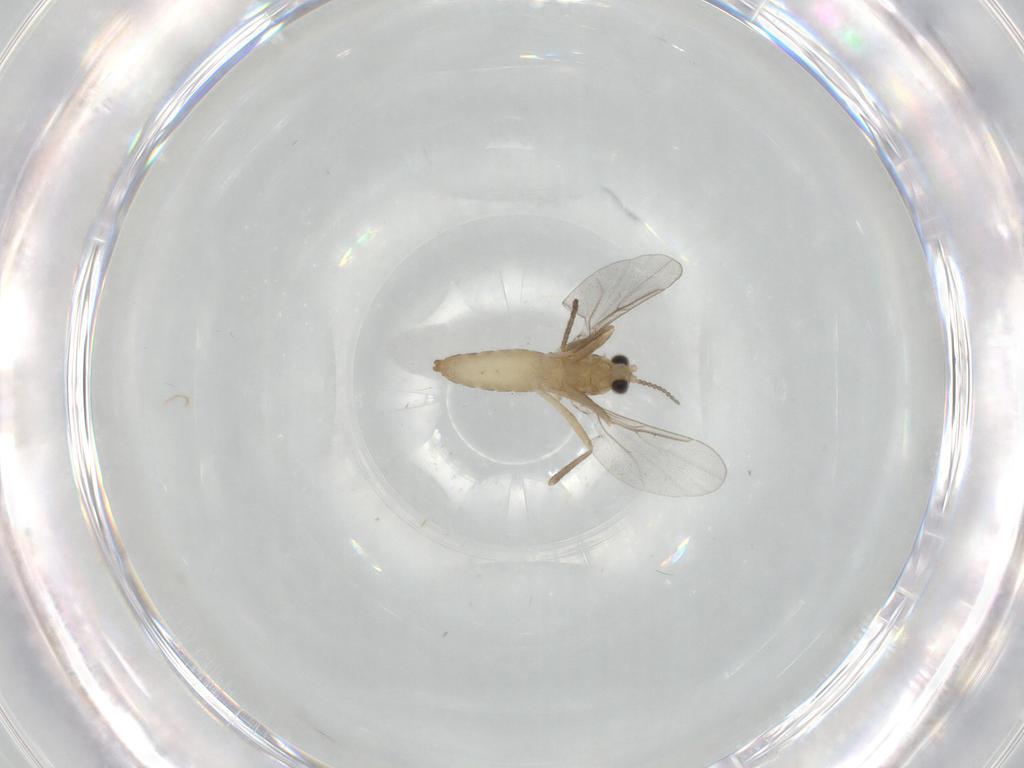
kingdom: Animalia
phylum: Arthropoda
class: Insecta
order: Diptera
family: Cecidomyiidae
